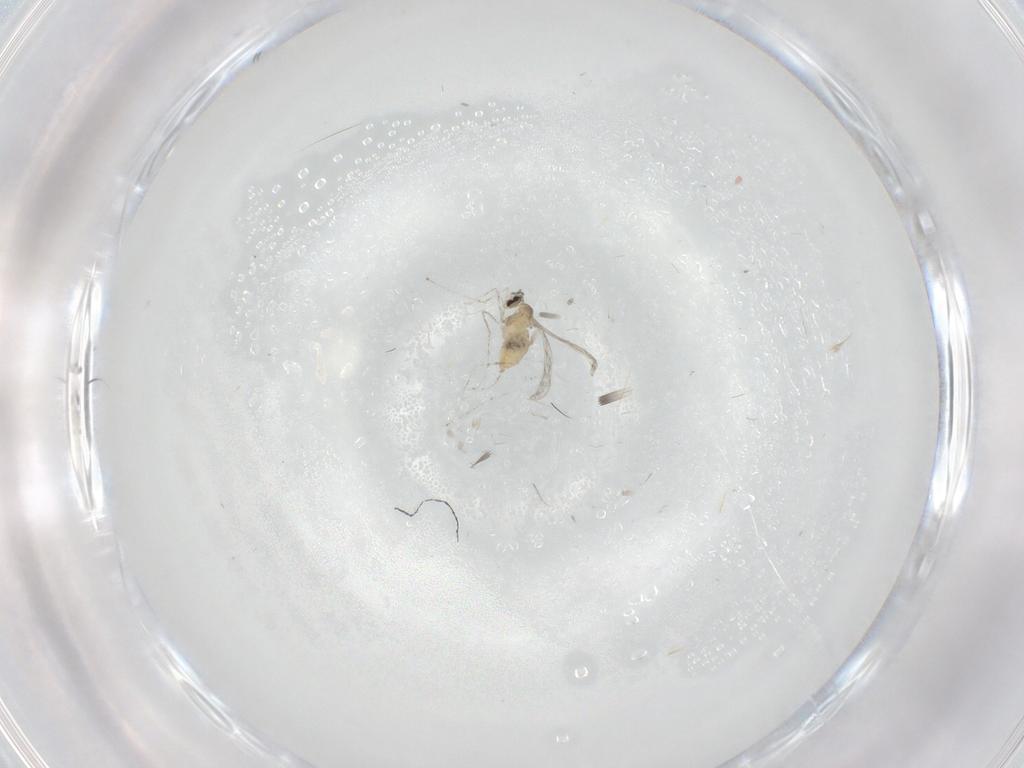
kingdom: Animalia
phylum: Arthropoda
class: Insecta
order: Diptera
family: Cecidomyiidae
